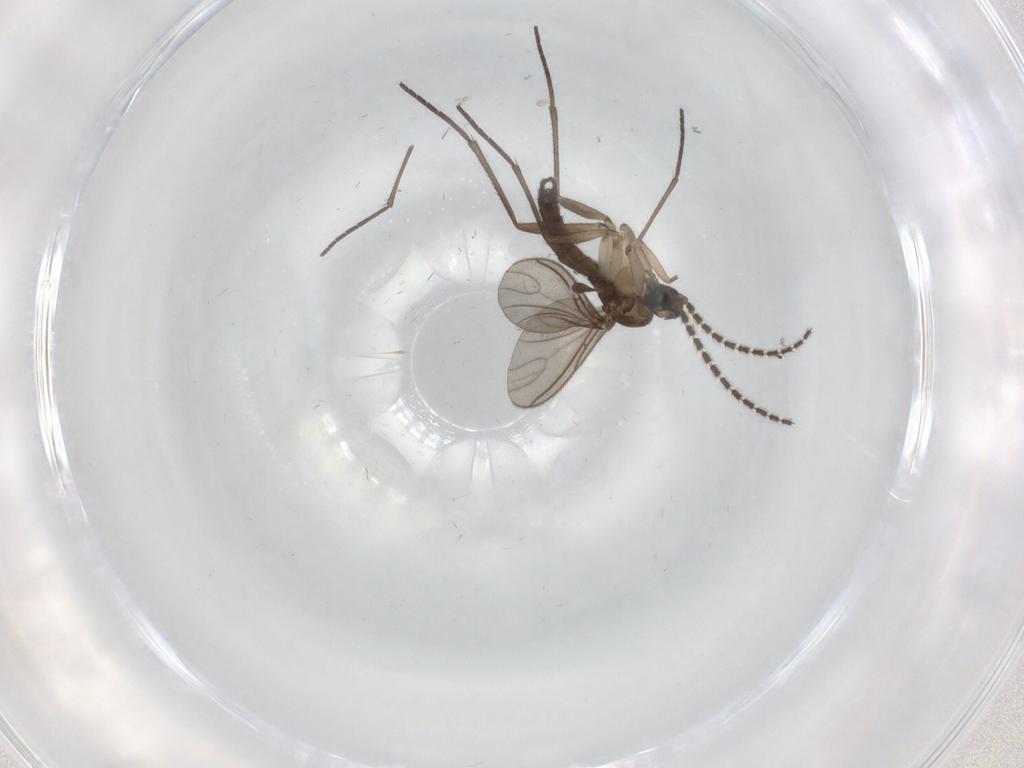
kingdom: Animalia
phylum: Arthropoda
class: Insecta
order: Diptera
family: Sciaridae
